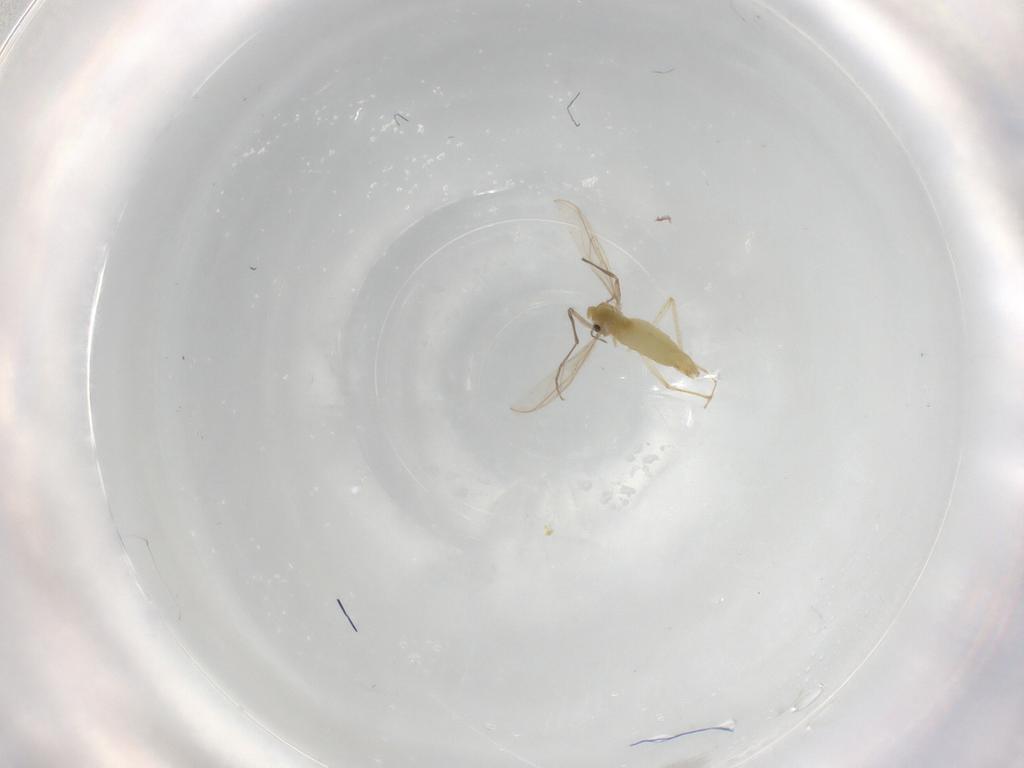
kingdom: Animalia
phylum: Arthropoda
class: Insecta
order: Diptera
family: Chironomidae
